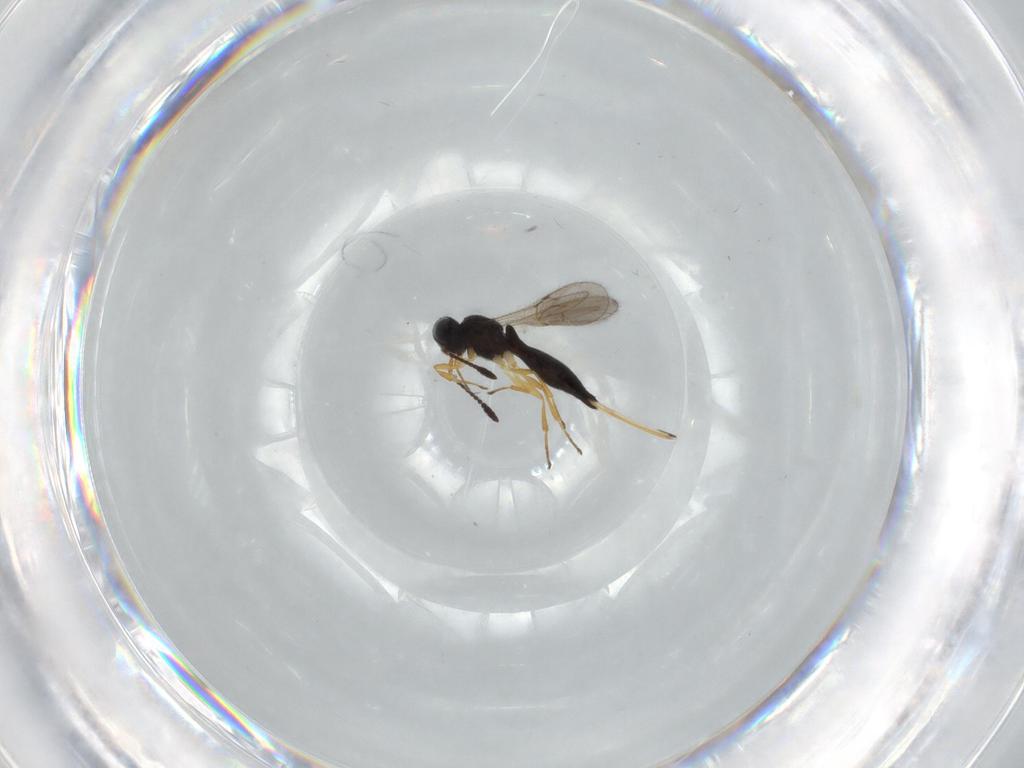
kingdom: Animalia
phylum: Arthropoda
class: Insecta
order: Hymenoptera
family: Scelionidae
